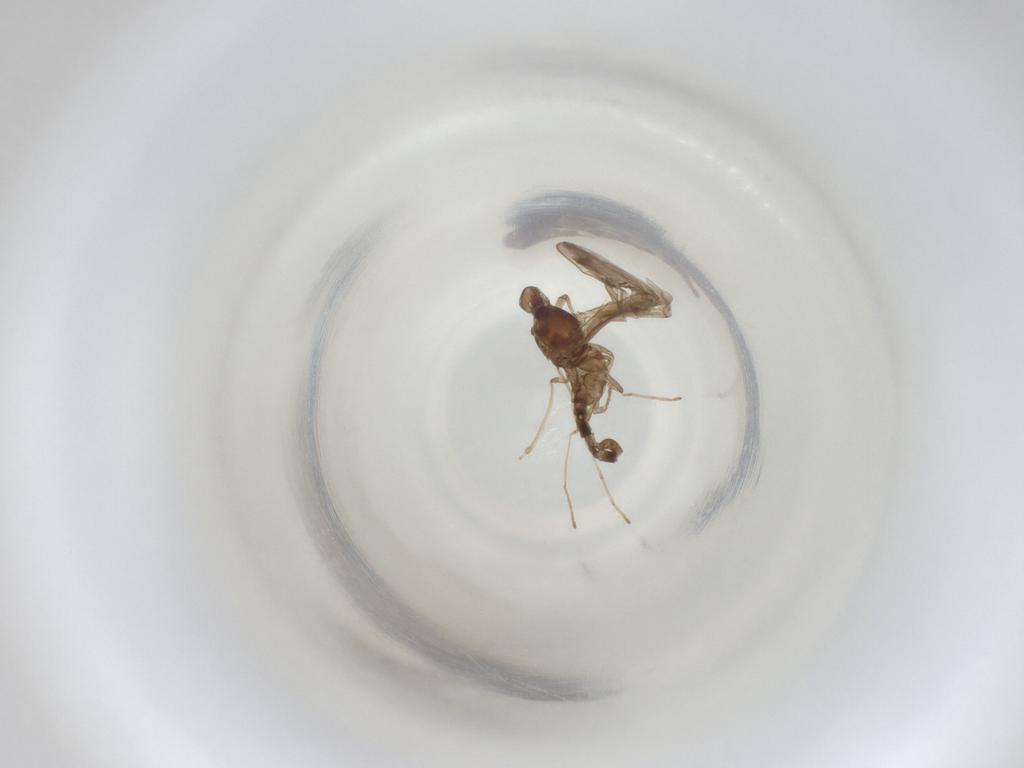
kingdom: Animalia
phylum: Arthropoda
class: Insecta
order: Diptera
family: Cecidomyiidae
